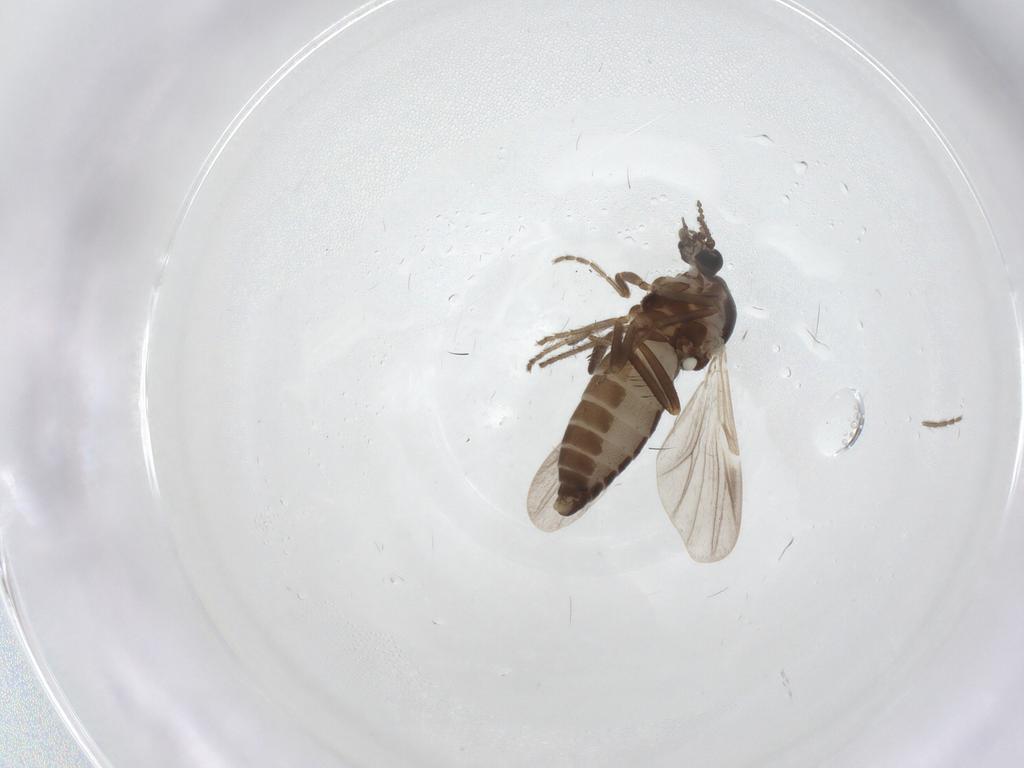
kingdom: Animalia
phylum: Arthropoda
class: Insecta
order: Diptera
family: Ceratopogonidae
